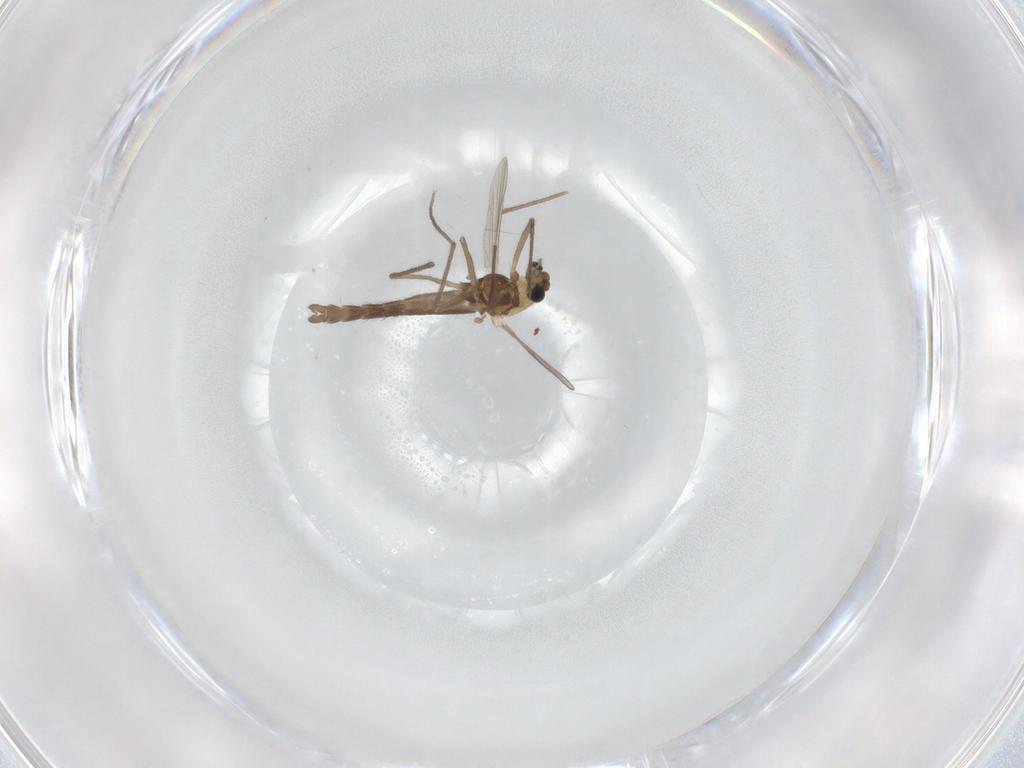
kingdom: Animalia
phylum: Arthropoda
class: Insecta
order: Diptera
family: Chironomidae
